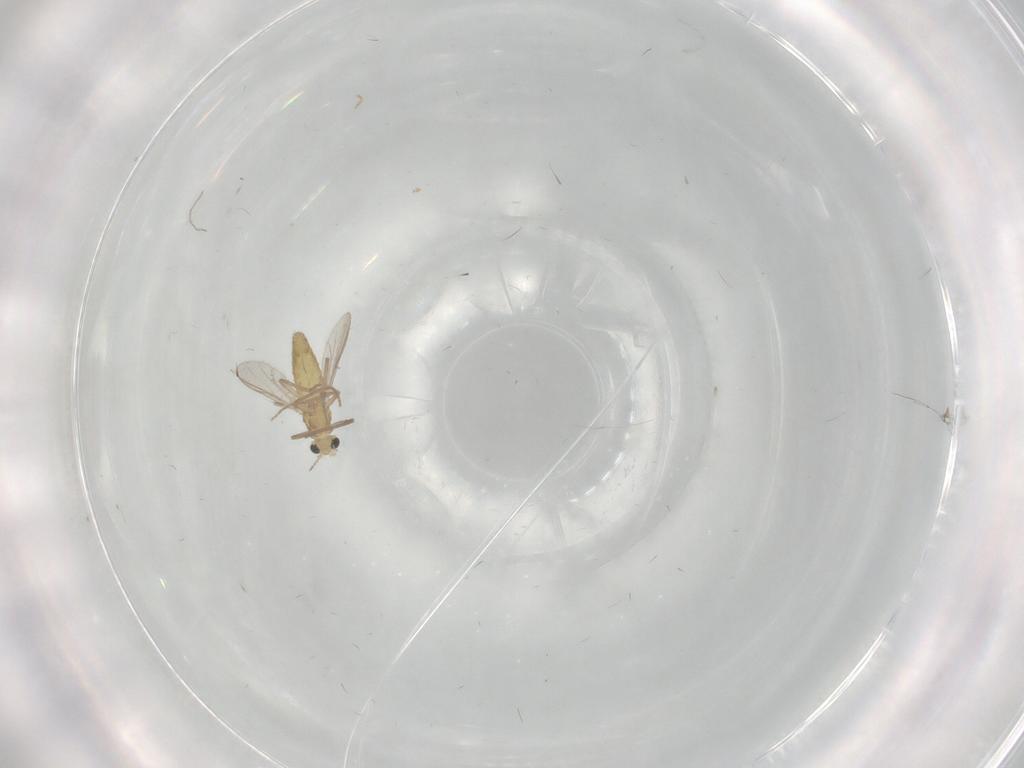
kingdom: Animalia
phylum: Arthropoda
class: Insecta
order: Diptera
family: Chironomidae
